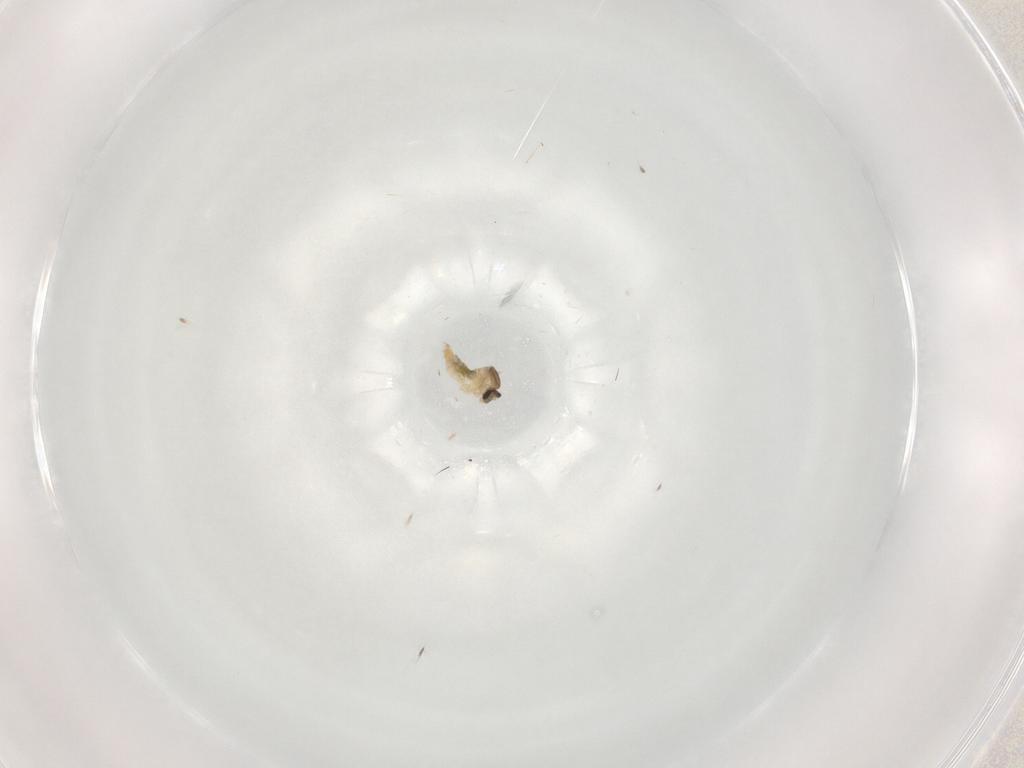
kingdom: Animalia
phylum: Arthropoda
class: Insecta
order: Diptera
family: Cecidomyiidae
